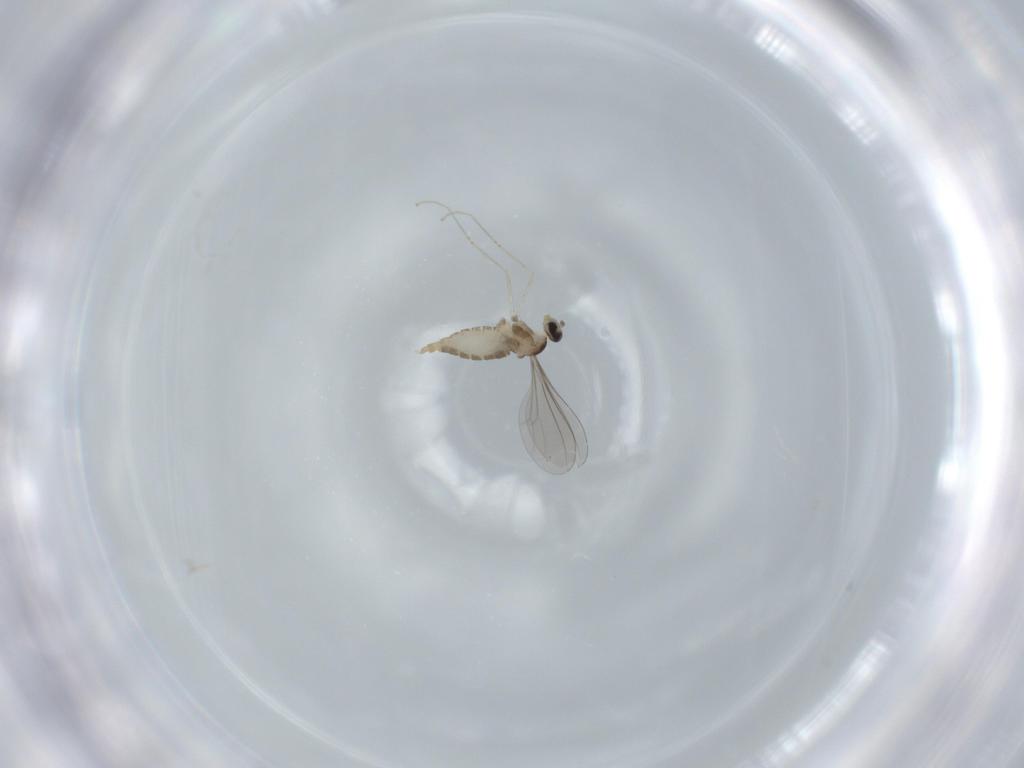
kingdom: Animalia
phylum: Arthropoda
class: Insecta
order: Diptera
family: Cecidomyiidae
